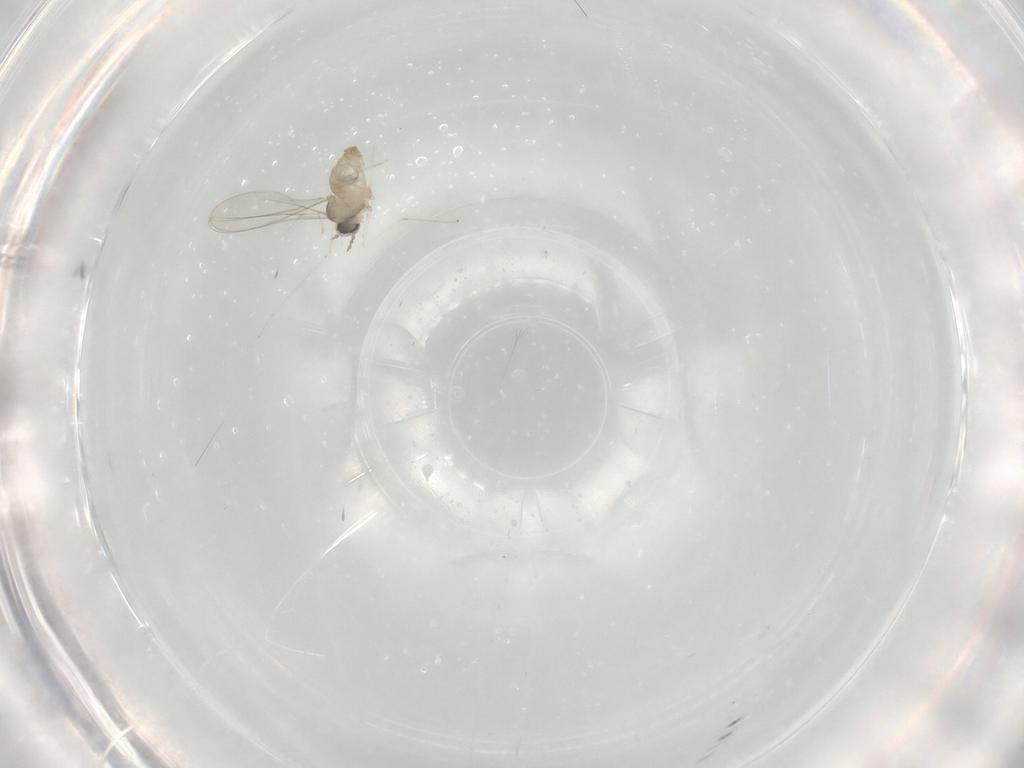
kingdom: Animalia
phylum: Arthropoda
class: Insecta
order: Diptera
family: Cecidomyiidae
